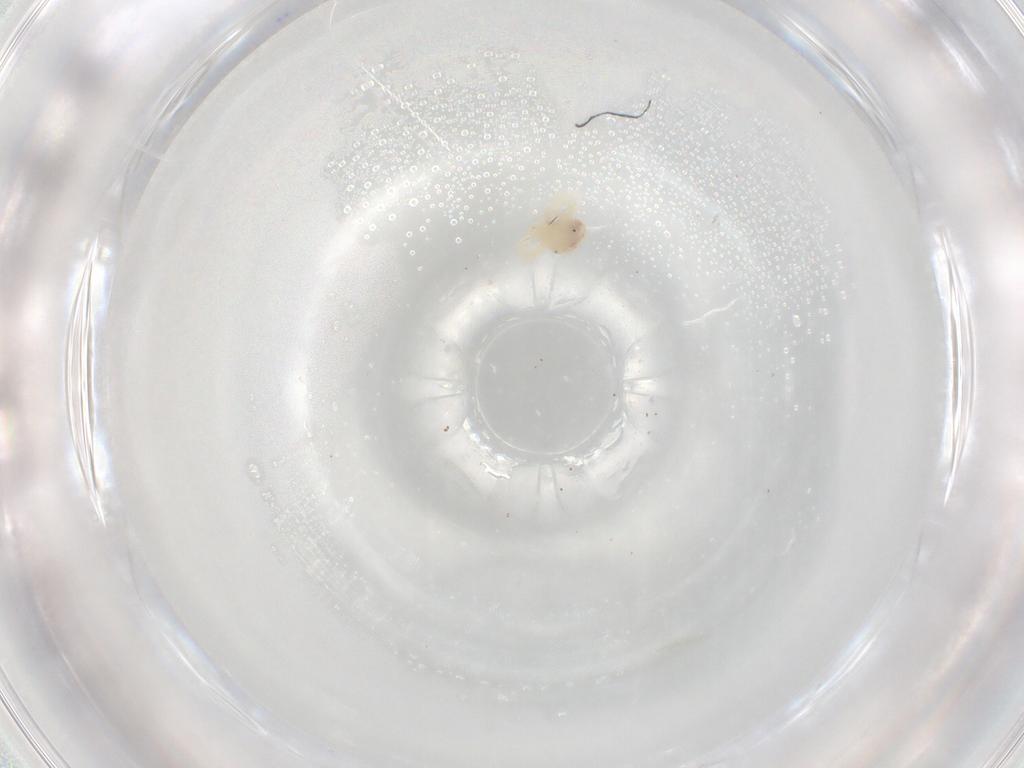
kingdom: Animalia
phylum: Arthropoda
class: Arachnida
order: Trombidiformes
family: Anystidae
